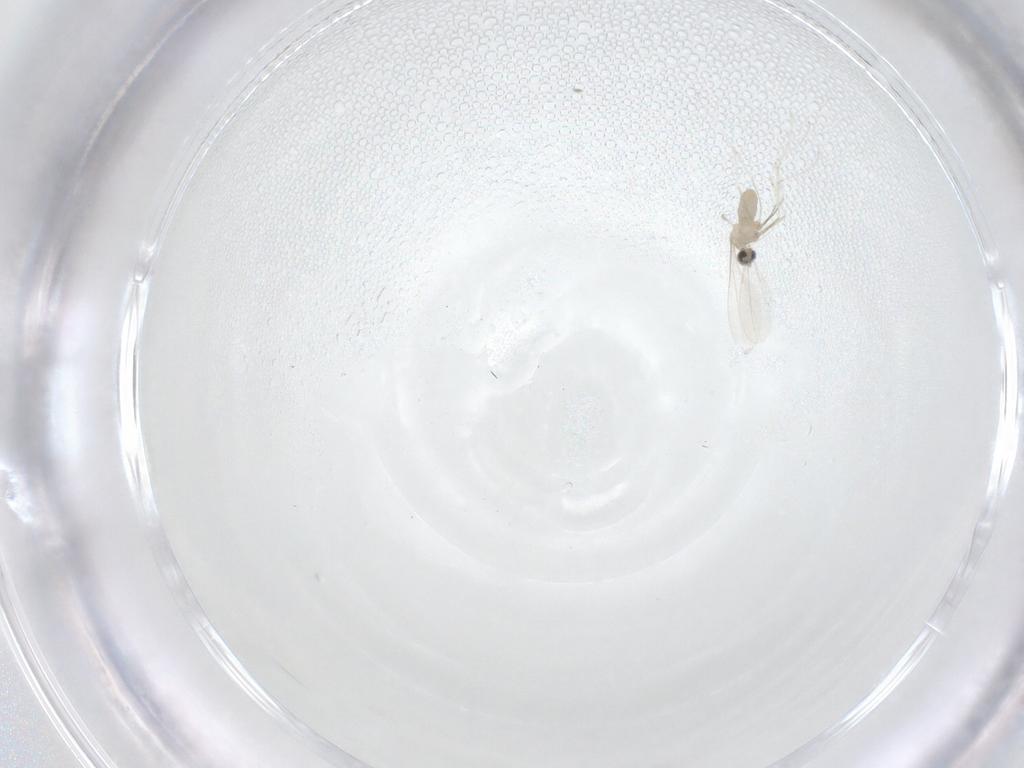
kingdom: Animalia
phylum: Arthropoda
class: Insecta
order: Diptera
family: Cecidomyiidae
